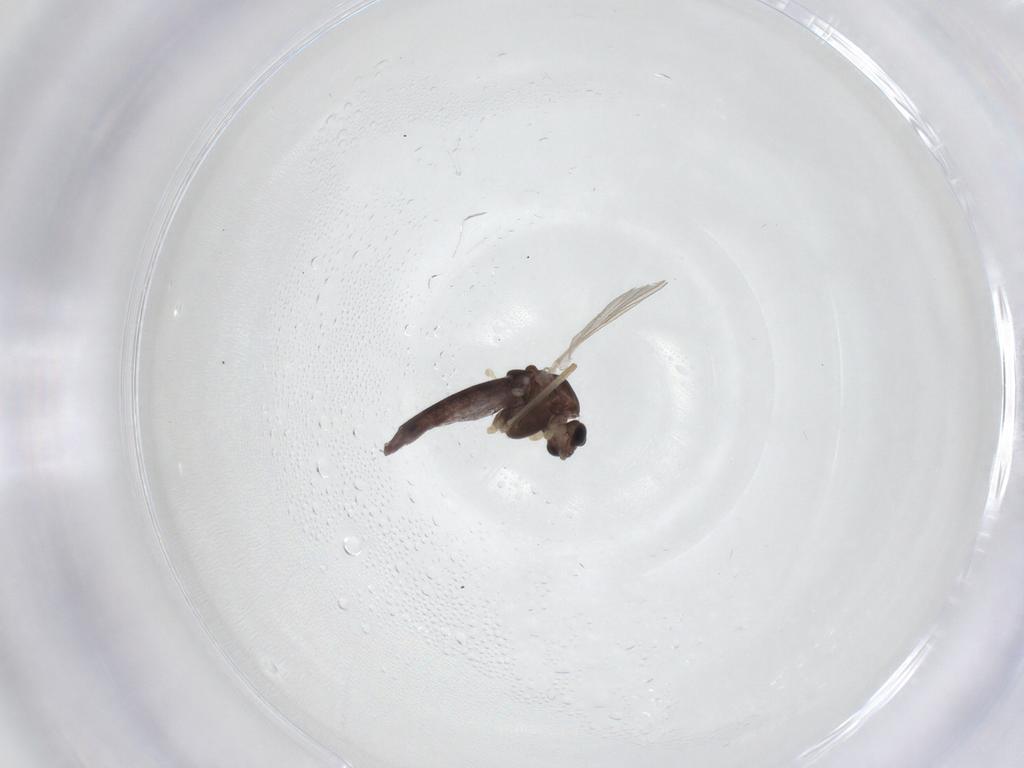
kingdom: Animalia
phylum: Arthropoda
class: Insecta
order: Diptera
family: Chironomidae
